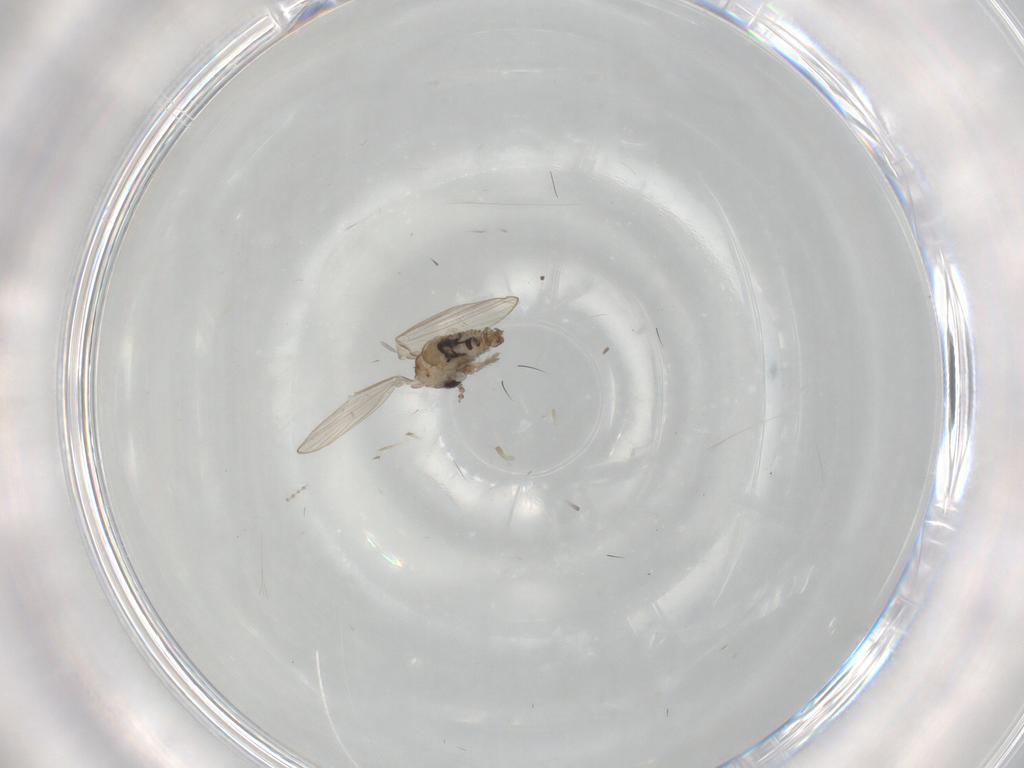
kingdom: Animalia
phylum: Arthropoda
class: Insecta
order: Diptera
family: Psychodidae
